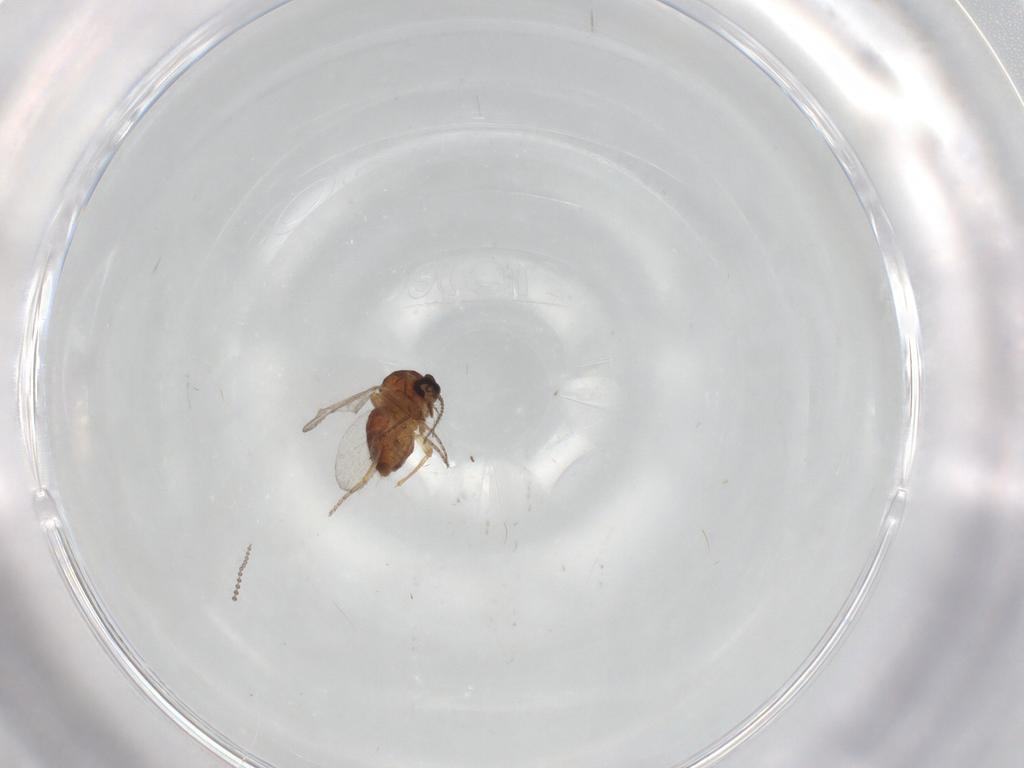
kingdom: Animalia
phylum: Arthropoda
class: Insecta
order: Diptera
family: Ceratopogonidae
